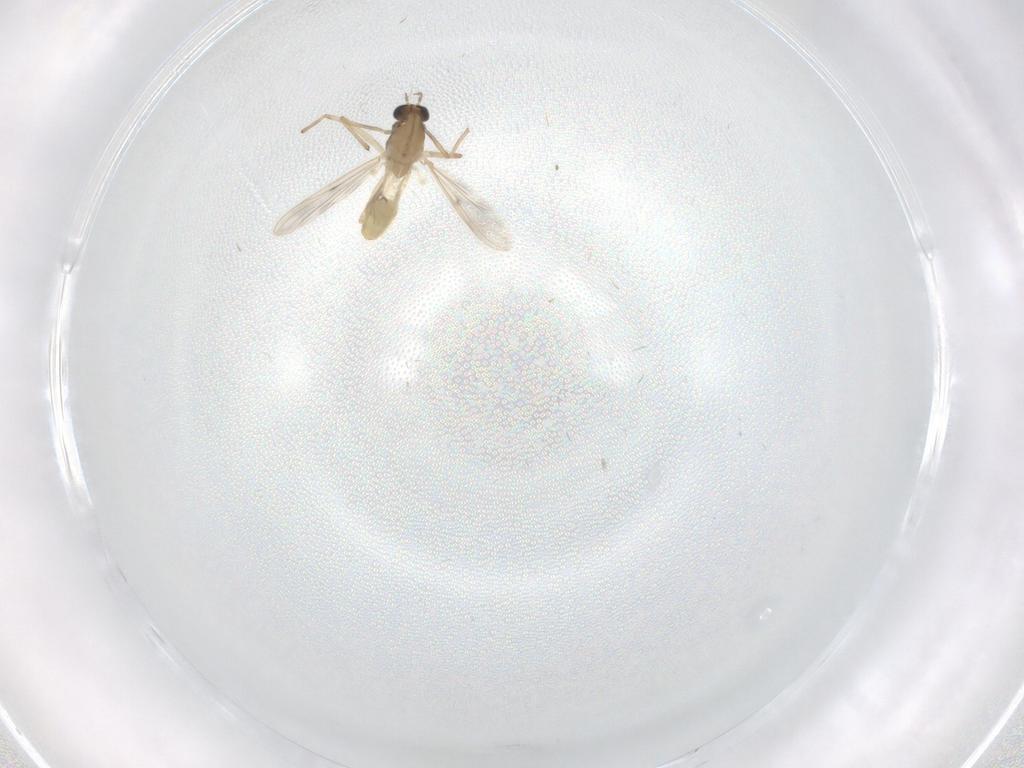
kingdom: Animalia
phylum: Arthropoda
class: Insecta
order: Diptera
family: Chironomidae
